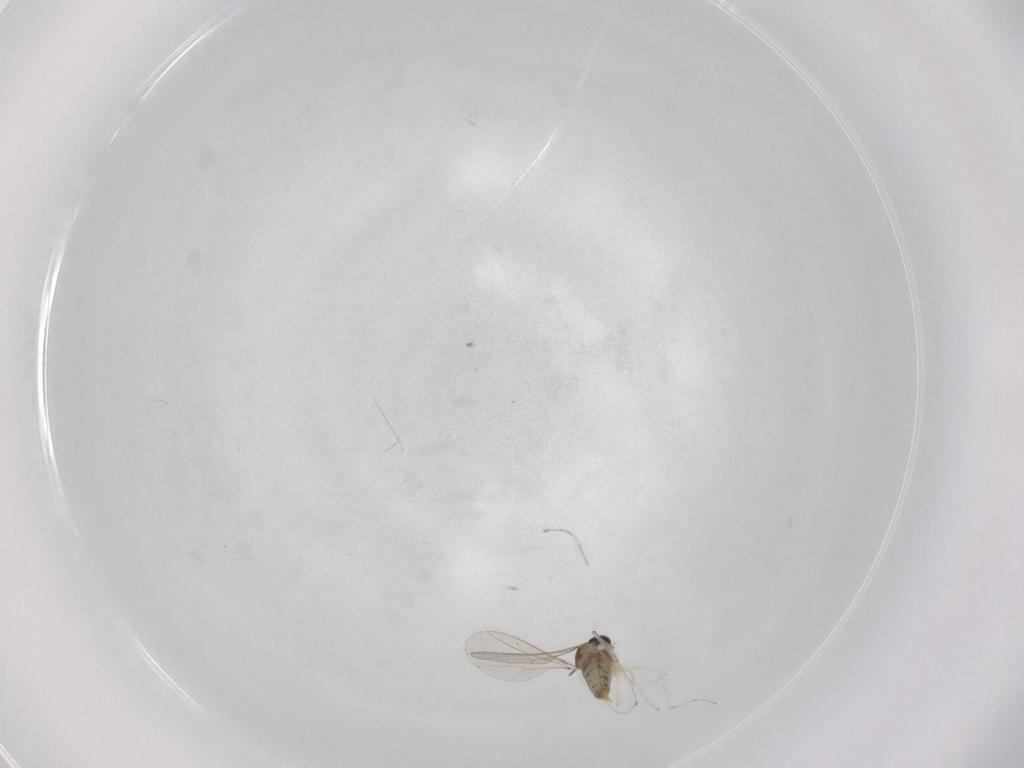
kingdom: Animalia
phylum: Arthropoda
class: Insecta
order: Diptera
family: Cecidomyiidae
